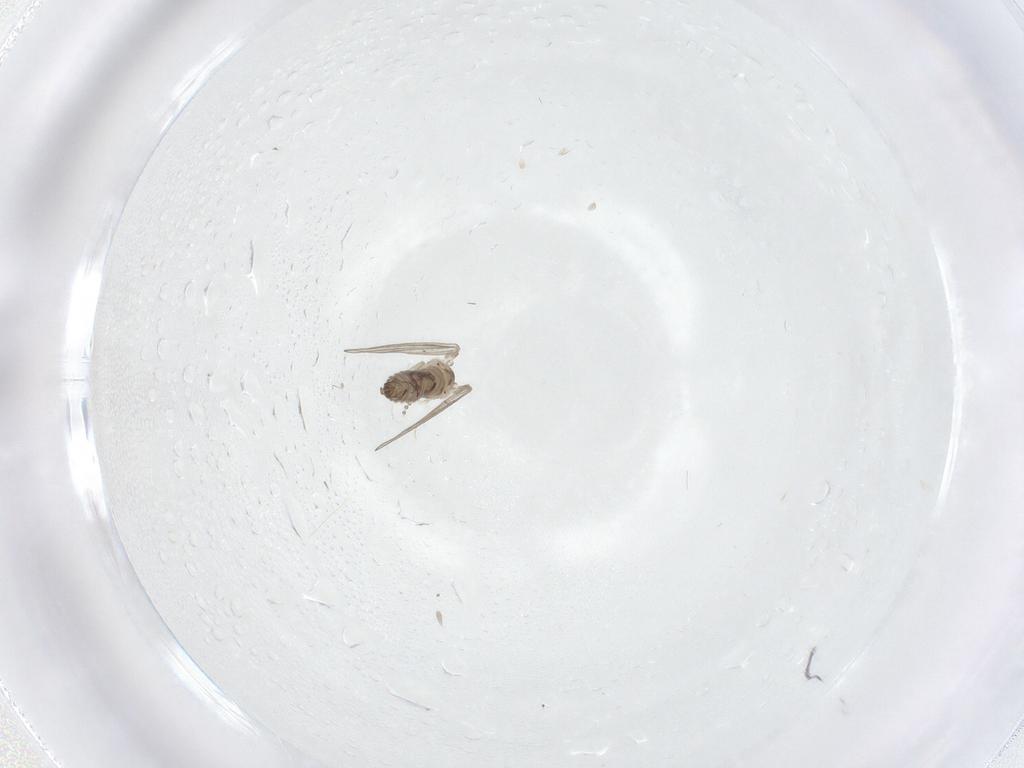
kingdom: Animalia
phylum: Arthropoda
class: Insecta
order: Diptera
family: Psychodidae
